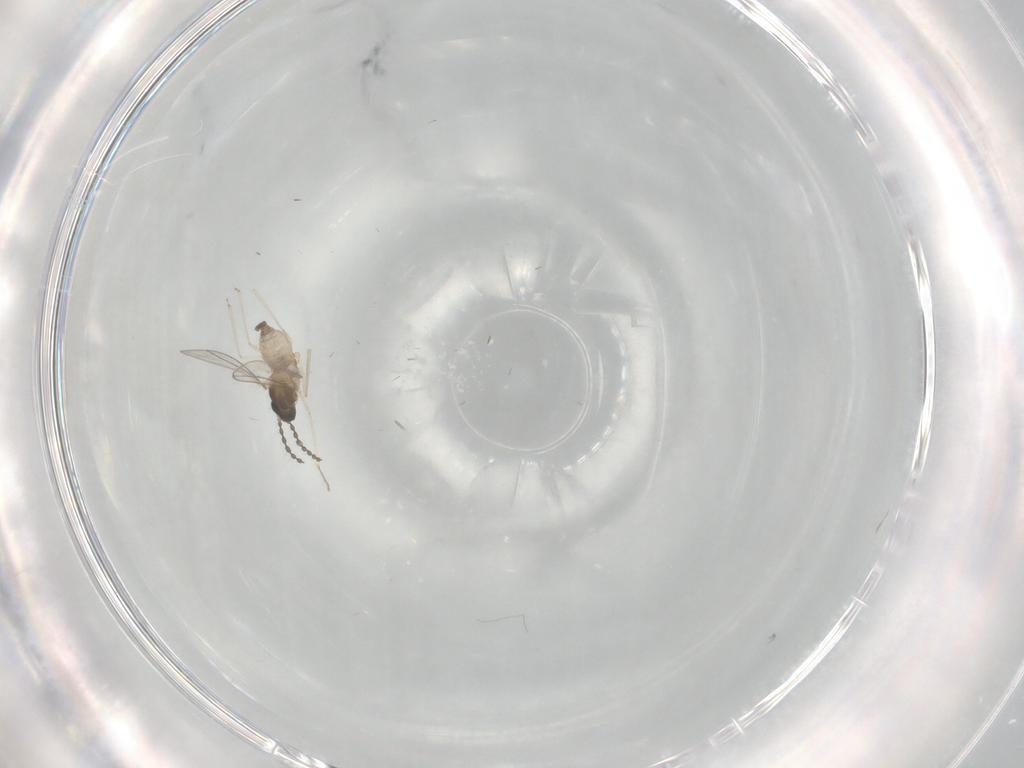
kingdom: Animalia
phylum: Arthropoda
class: Insecta
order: Diptera
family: Cecidomyiidae
